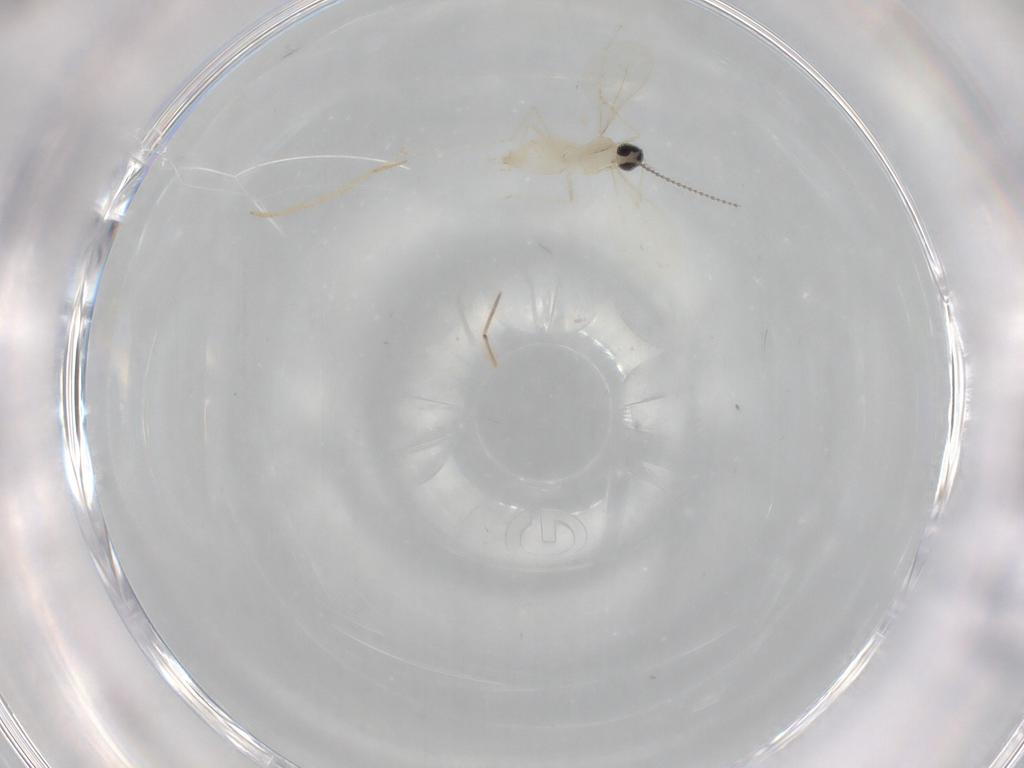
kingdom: Animalia
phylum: Arthropoda
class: Insecta
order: Diptera
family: Cecidomyiidae
